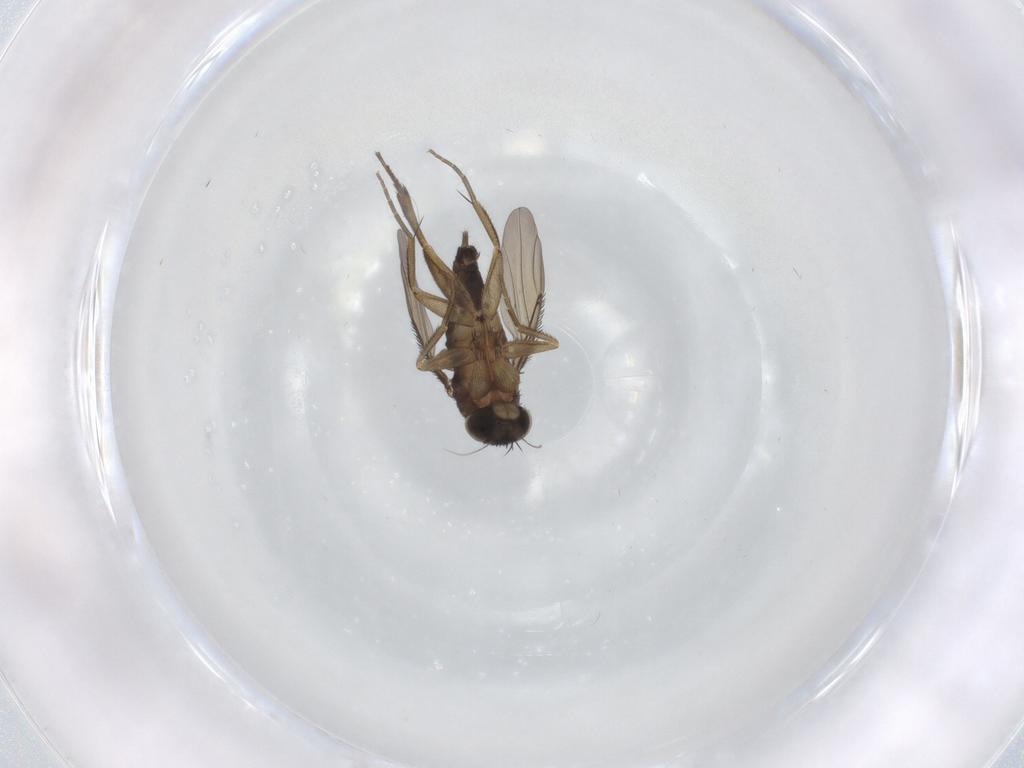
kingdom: Animalia
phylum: Arthropoda
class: Insecta
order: Diptera
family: Phoridae
